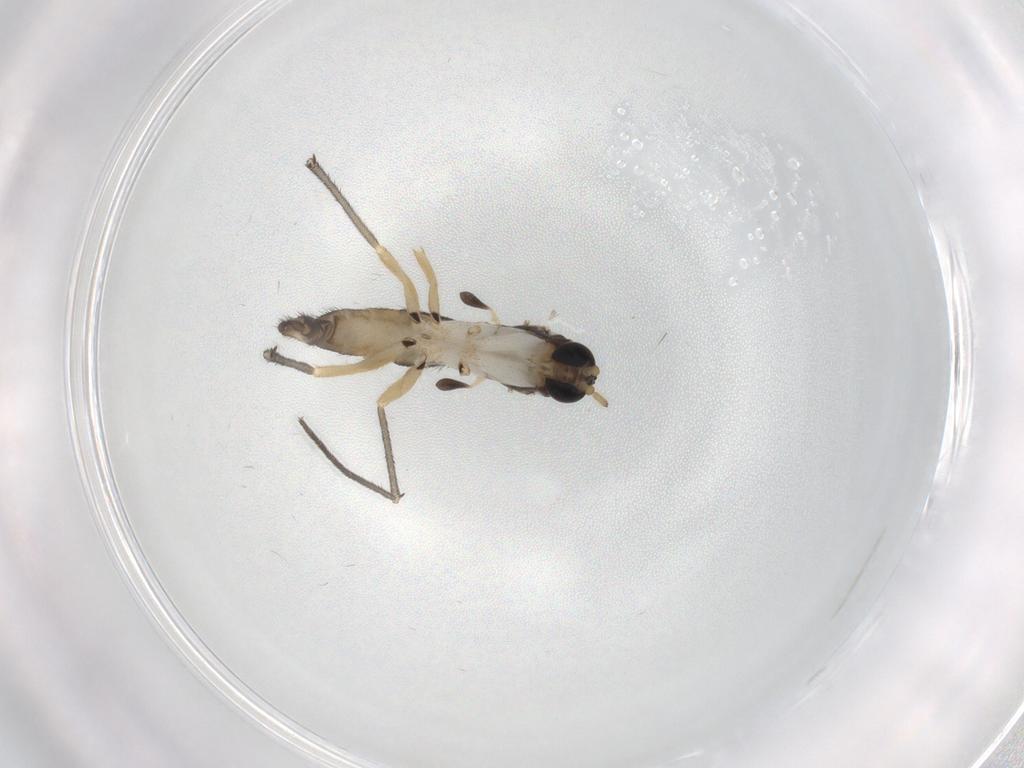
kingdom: Animalia
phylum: Arthropoda
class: Insecta
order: Diptera
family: Sciaridae
